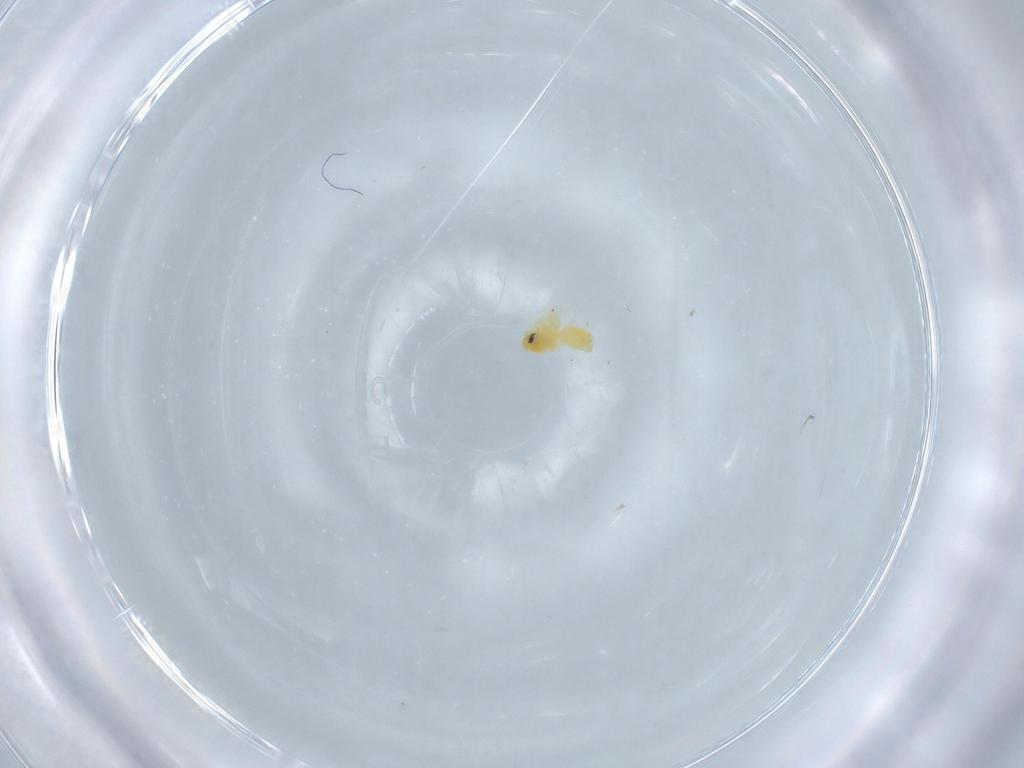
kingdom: Animalia
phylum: Arthropoda
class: Insecta
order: Hemiptera
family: Aleyrodidae
